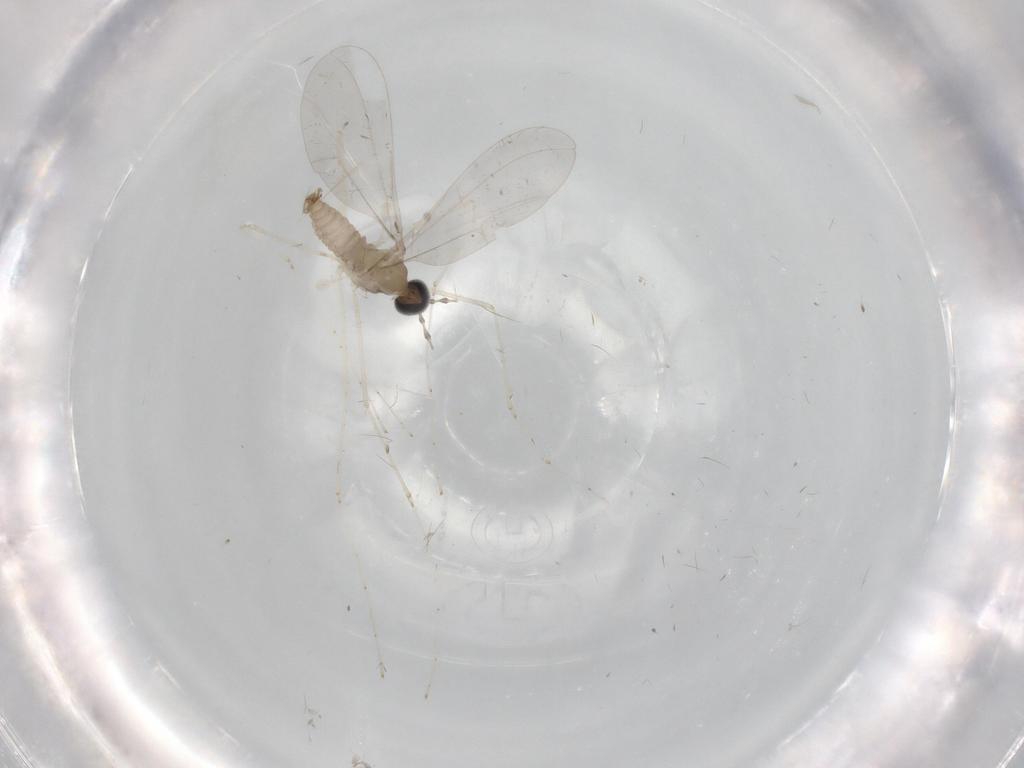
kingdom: Animalia
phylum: Arthropoda
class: Insecta
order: Diptera
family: Cecidomyiidae
